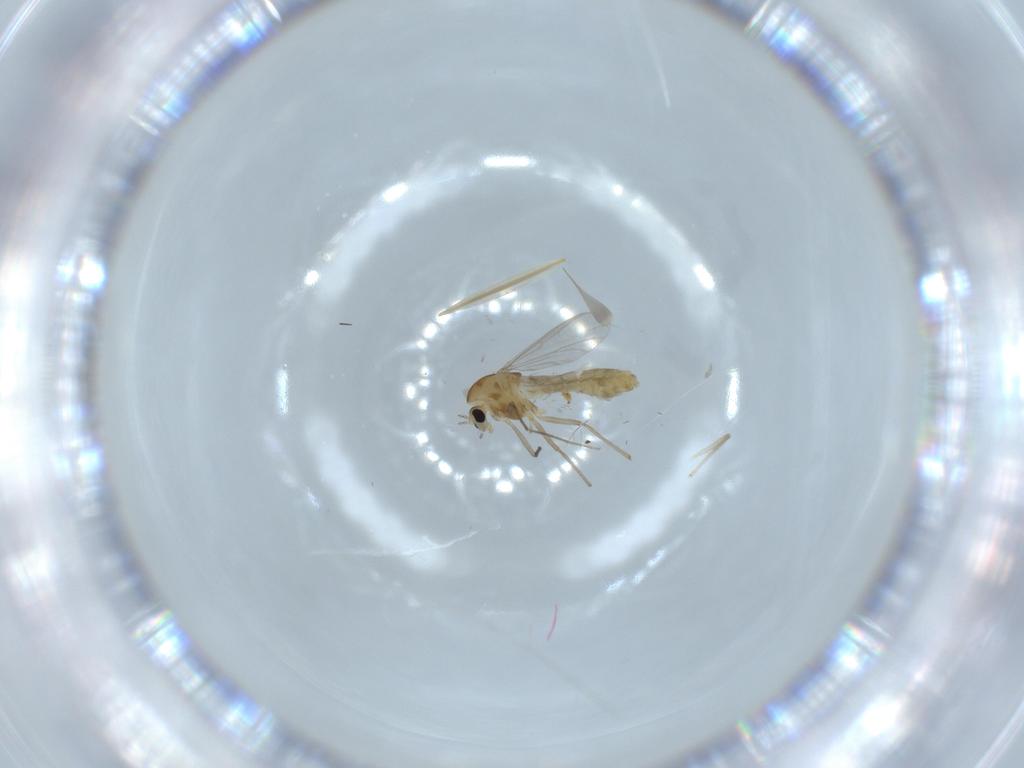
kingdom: Animalia
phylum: Arthropoda
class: Insecta
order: Diptera
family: Chironomidae
